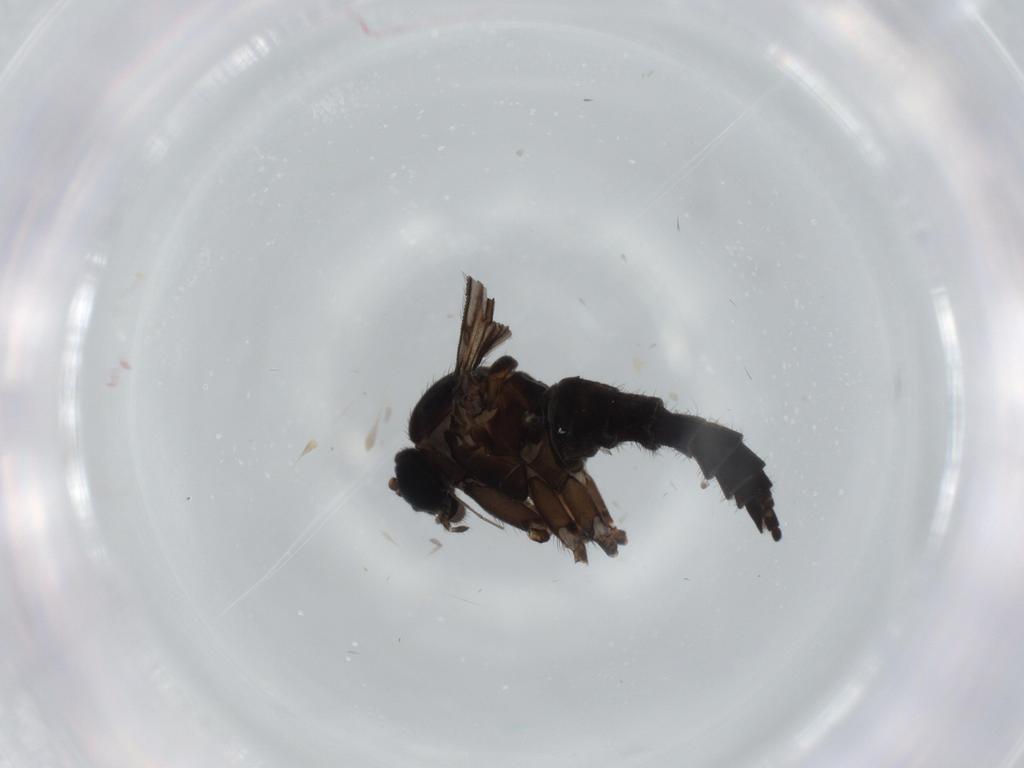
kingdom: Animalia
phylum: Arthropoda
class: Insecta
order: Diptera
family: Sciaridae
